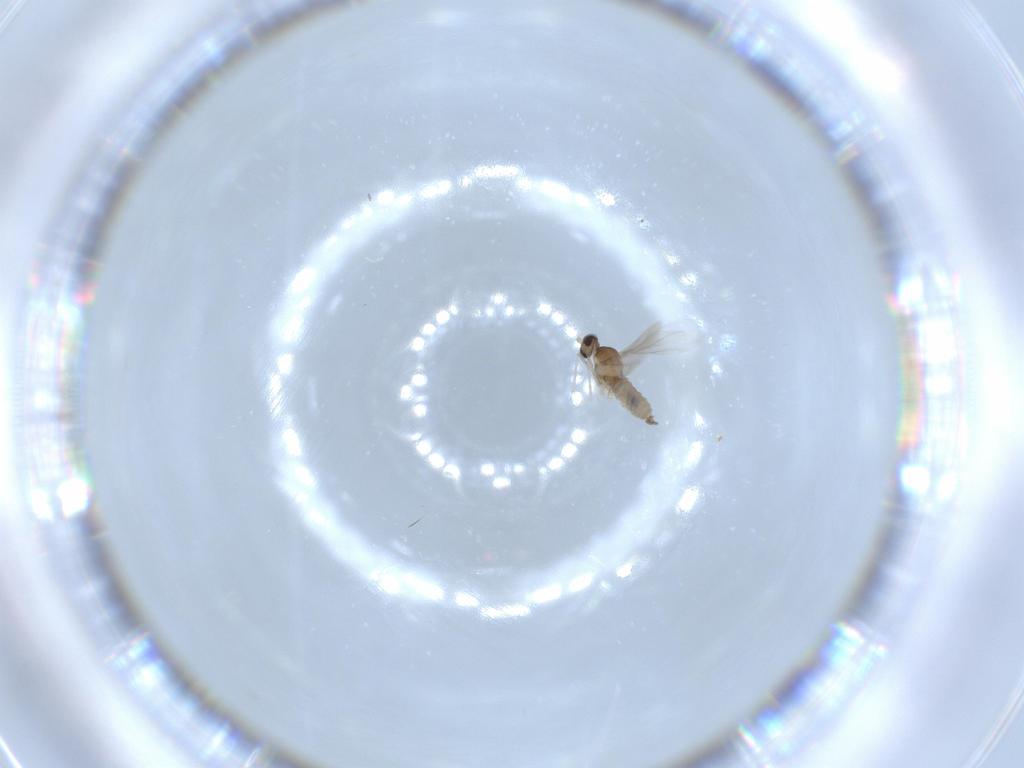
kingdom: Animalia
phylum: Arthropoda
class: Insecta
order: Diptera
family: Cecidomyiidae
